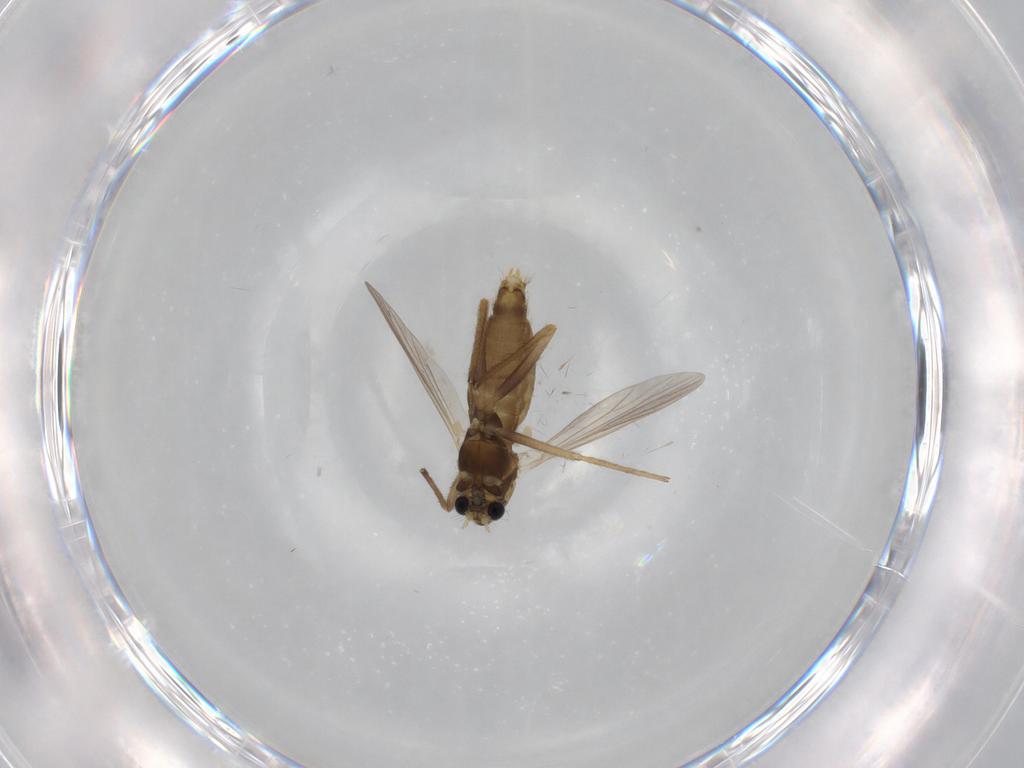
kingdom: Animalia
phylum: Arthropoda
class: Insecta
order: Diptera
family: Chironomidae
